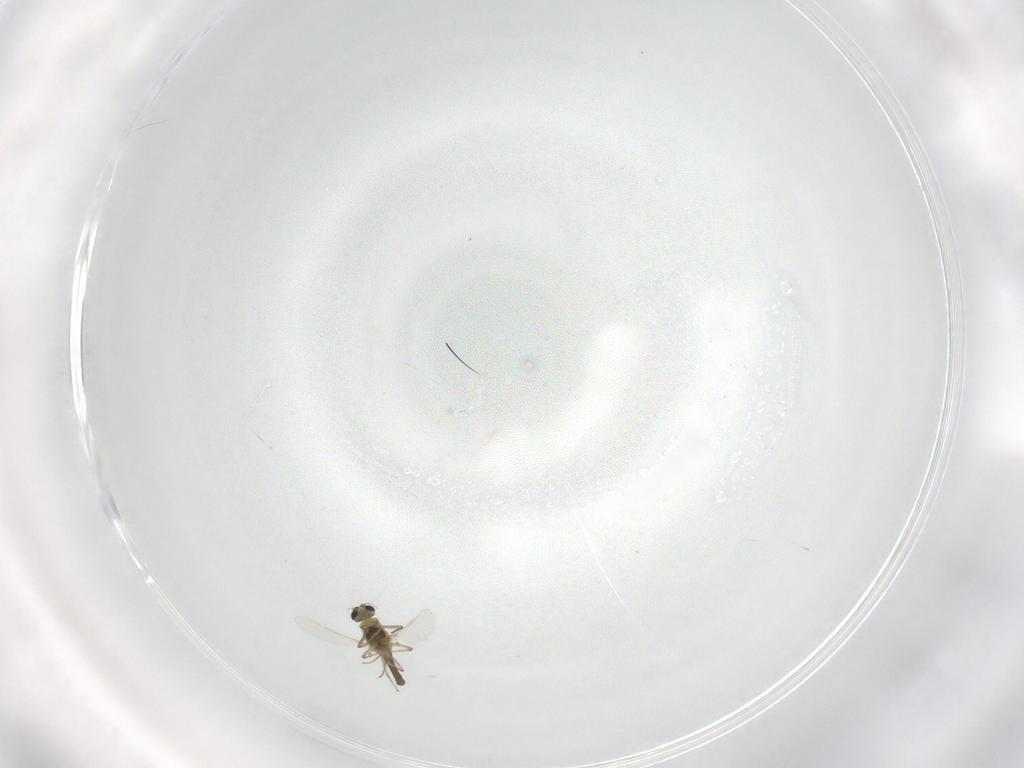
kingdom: Animalia
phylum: Arthropoda
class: Insecta
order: Diptera
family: Chironomidae
